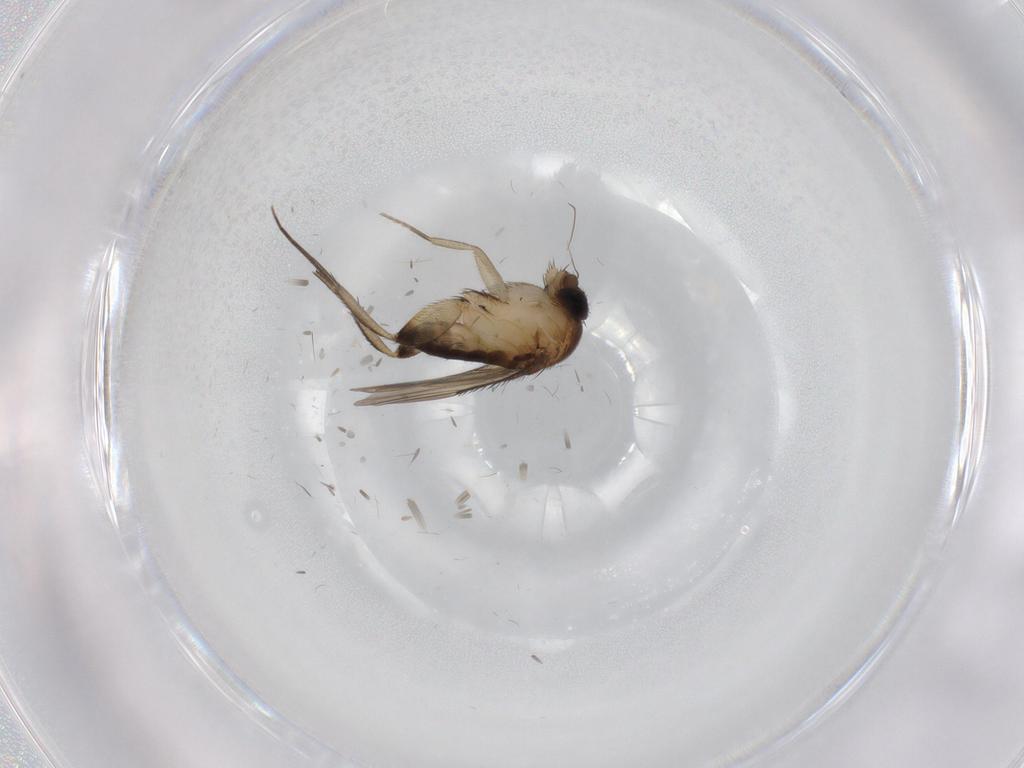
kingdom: Animalia
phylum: Arthropoda
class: Insecta
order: Diptera
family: Phoridae
